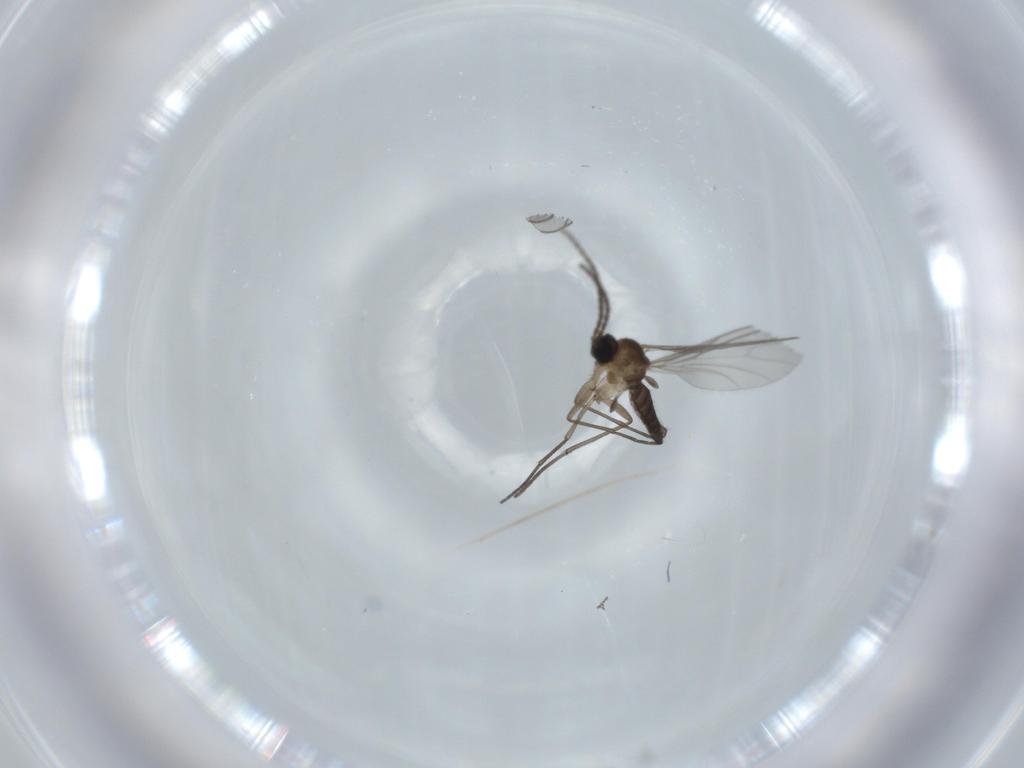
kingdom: Animalia
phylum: Arthropoda
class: Insecta
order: Diptera
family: Sciaridae
